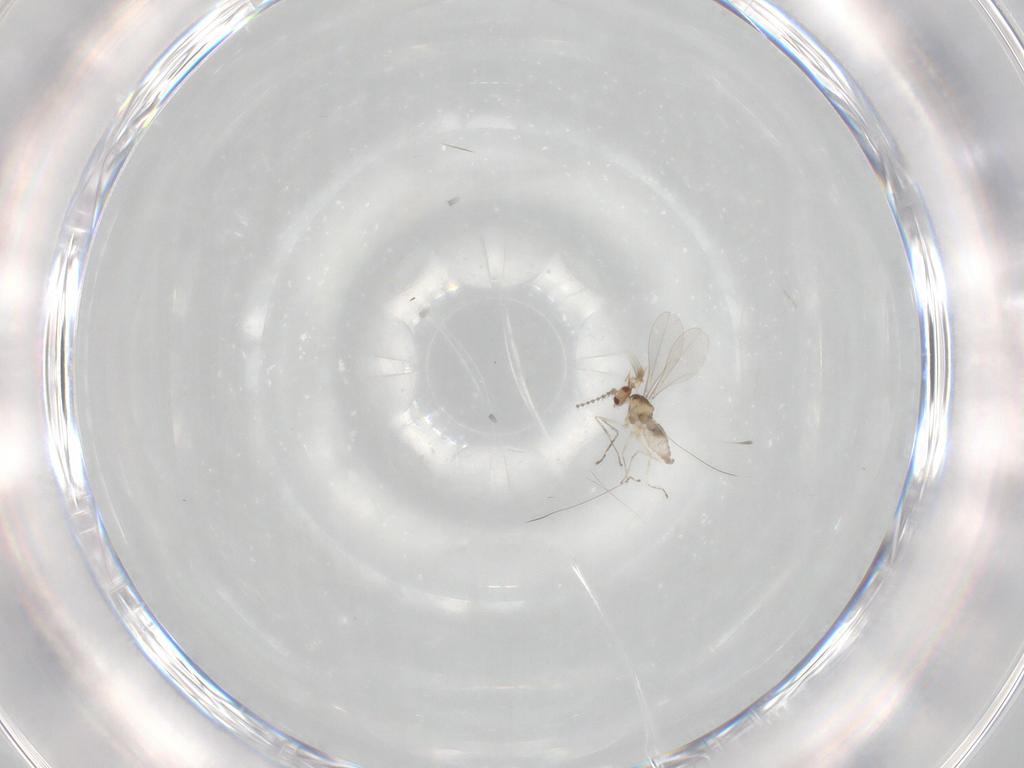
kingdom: Animalia
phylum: Arthropoda
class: Insecta
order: Diptera
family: Cecidomyiidae
